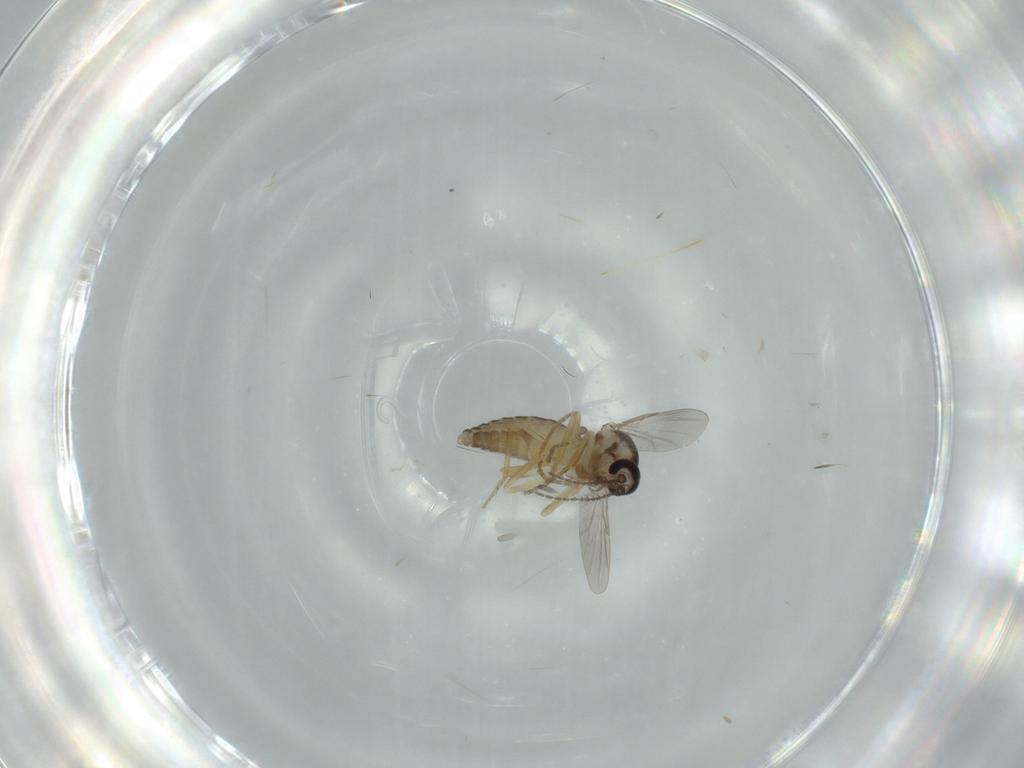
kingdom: Animalia
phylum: Arthropoda
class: Insecta
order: Diptera
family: Ceratopogonidae
